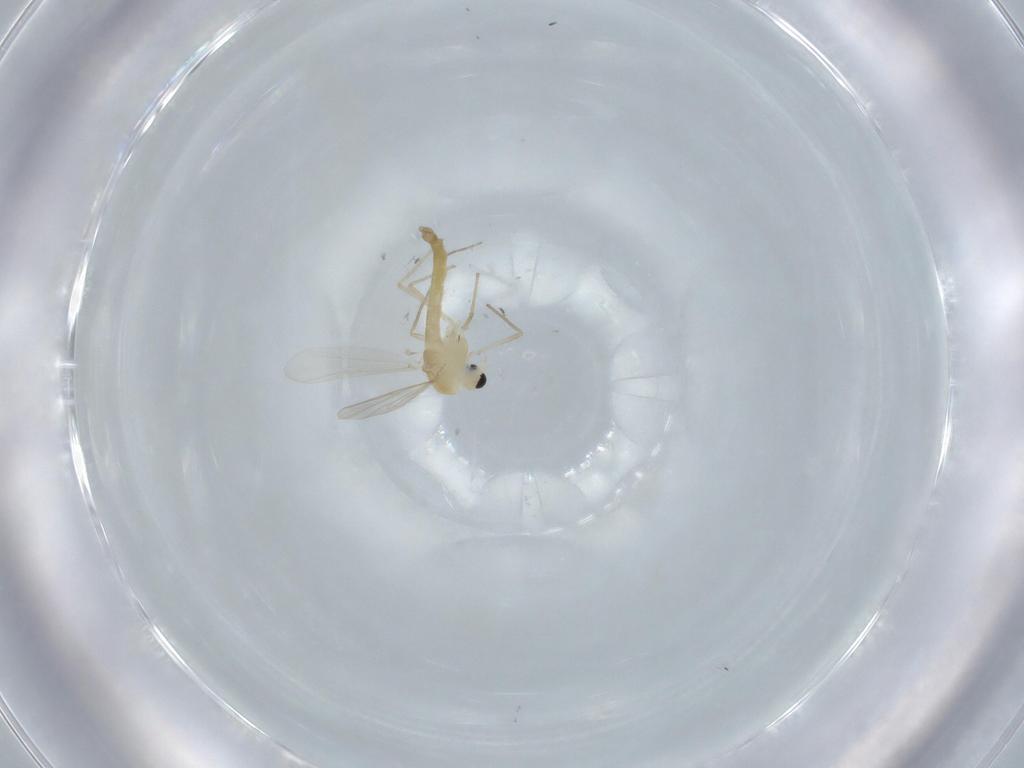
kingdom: Animalia
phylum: Arthropoda
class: Insecta
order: Diptera
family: Chironomidae
